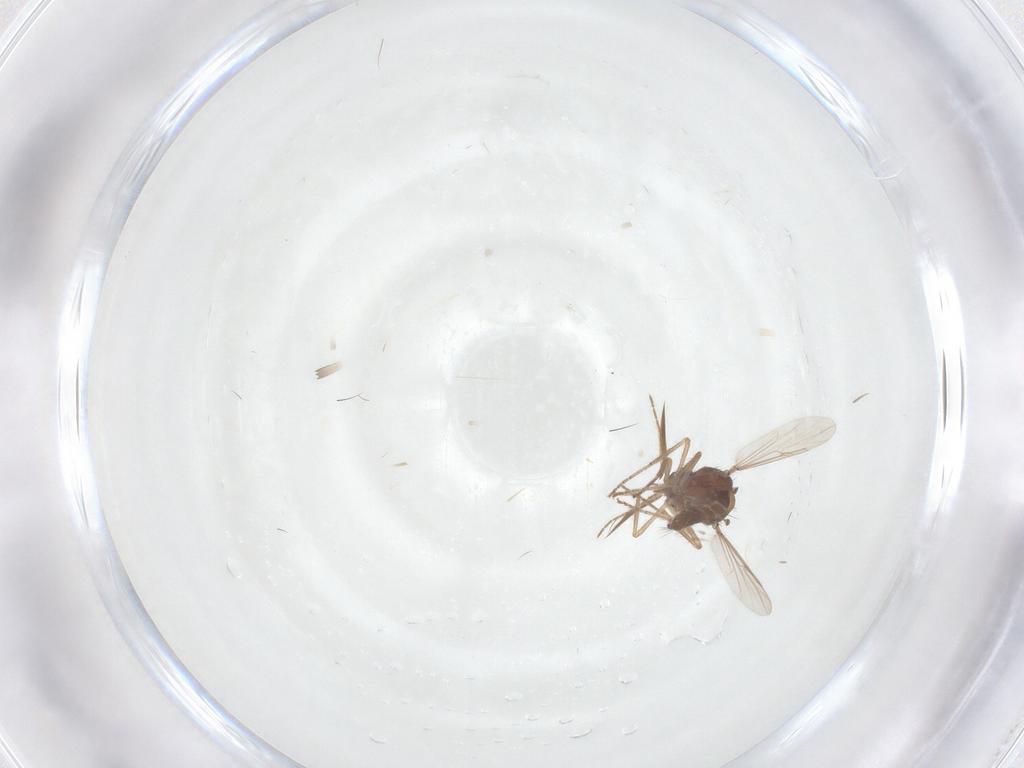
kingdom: Animalia
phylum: Arthropoda
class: Insecta
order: Diptera
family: Ceratopogonidae
